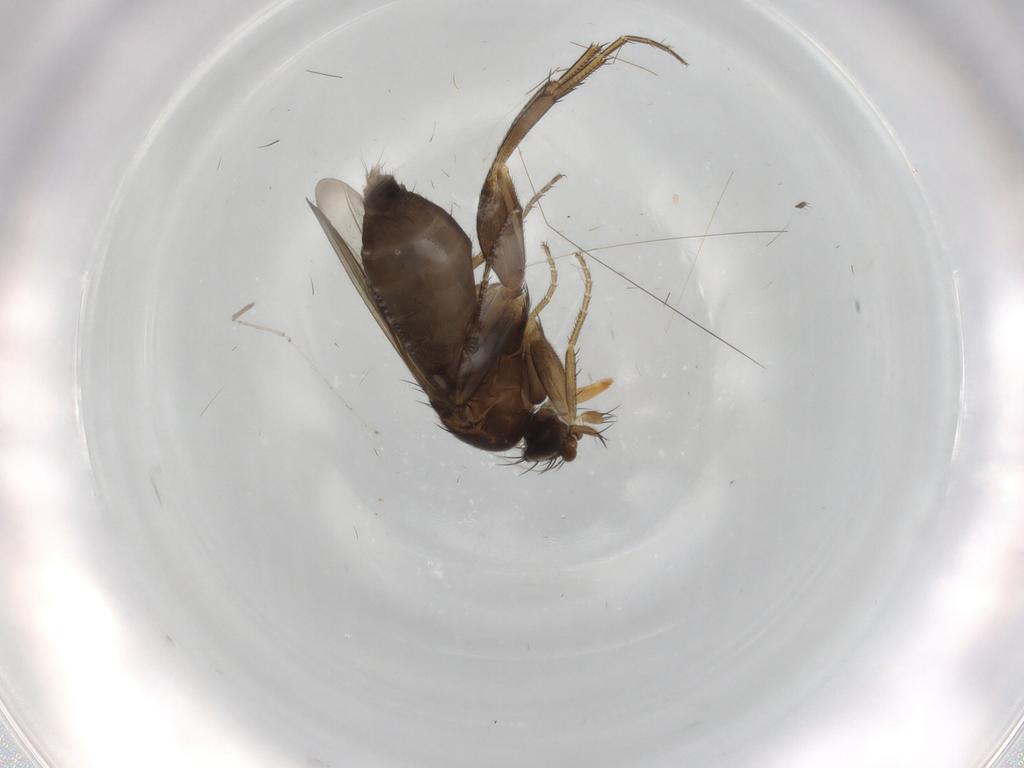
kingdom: Animalia
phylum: Arthropoda
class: Insecta
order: Diptera
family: Cecidomyiidae
